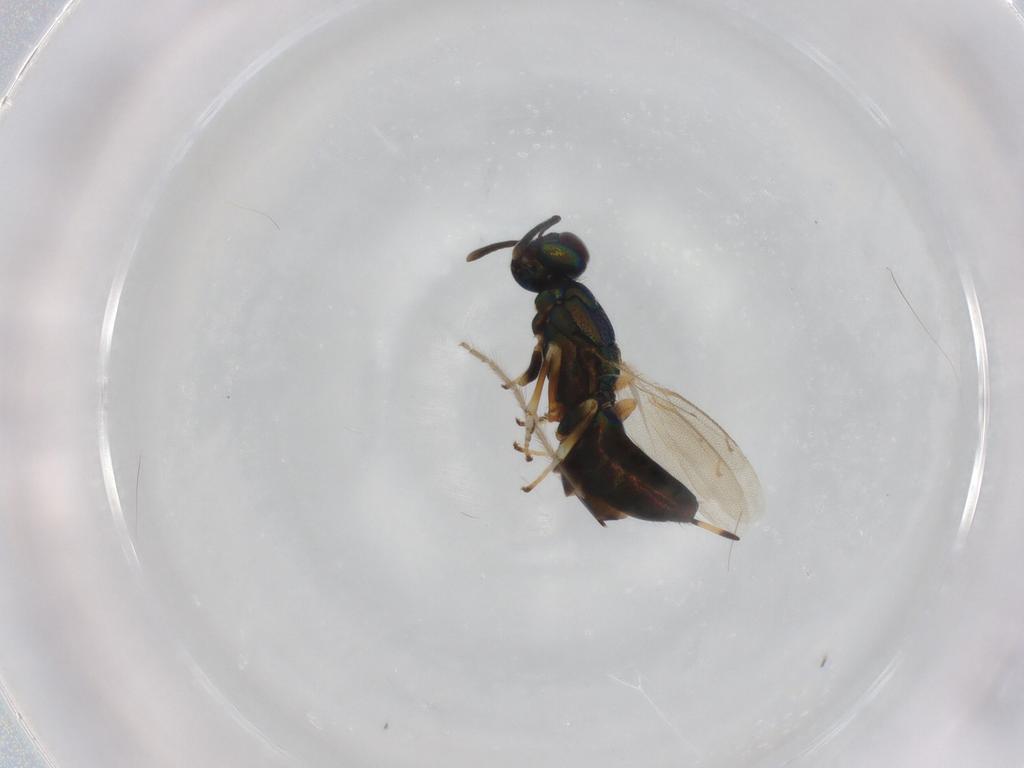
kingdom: Animalia
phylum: Arthropoda
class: Insecta
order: Hymenoptera
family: Eupelmidae
